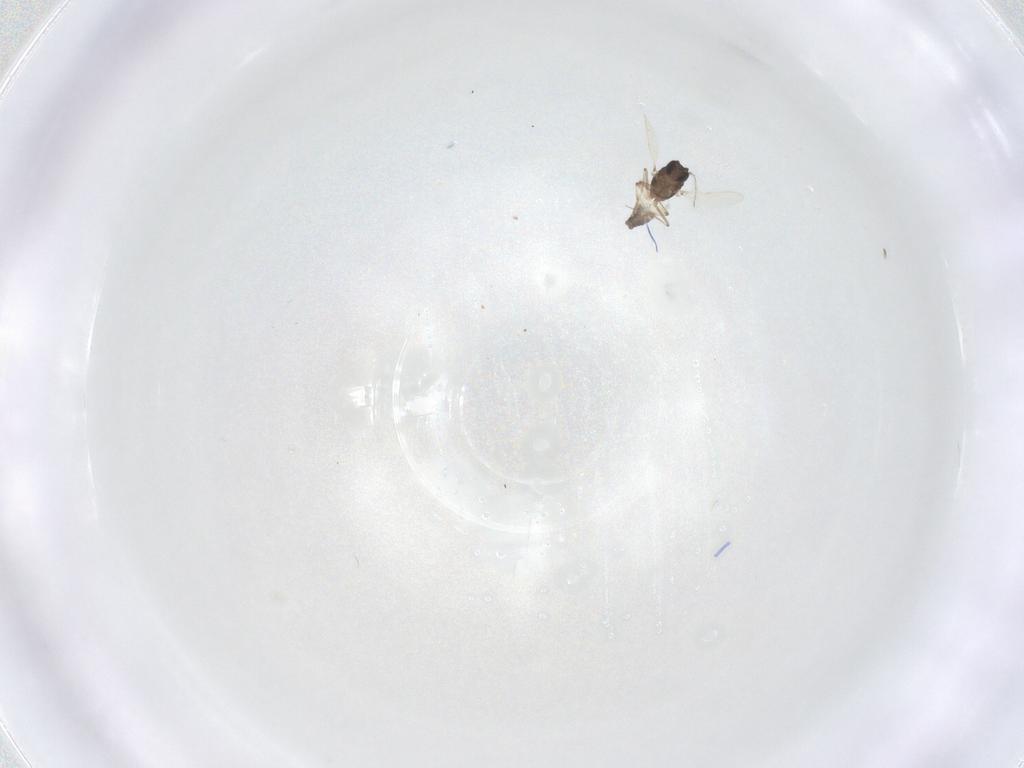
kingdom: Animalia
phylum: Arthropoda
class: Insecta
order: Diptera
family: Ceratopogonidae
